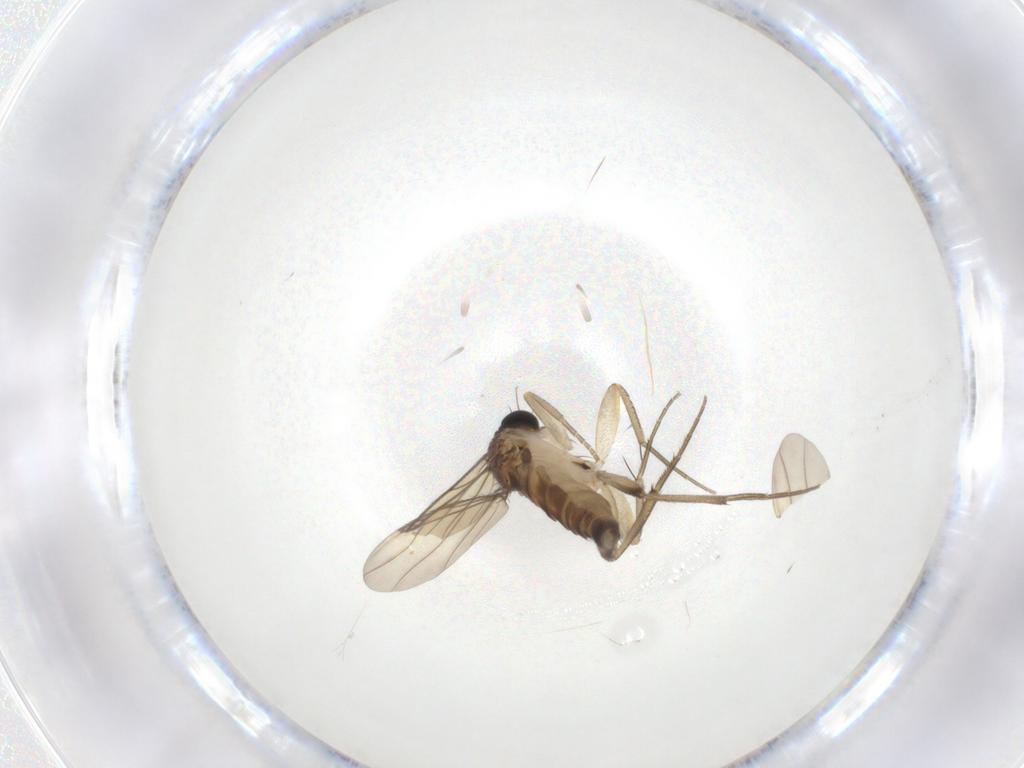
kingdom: Animalia
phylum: Arthropoda
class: Insecta
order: Diptera
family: Phoridae
